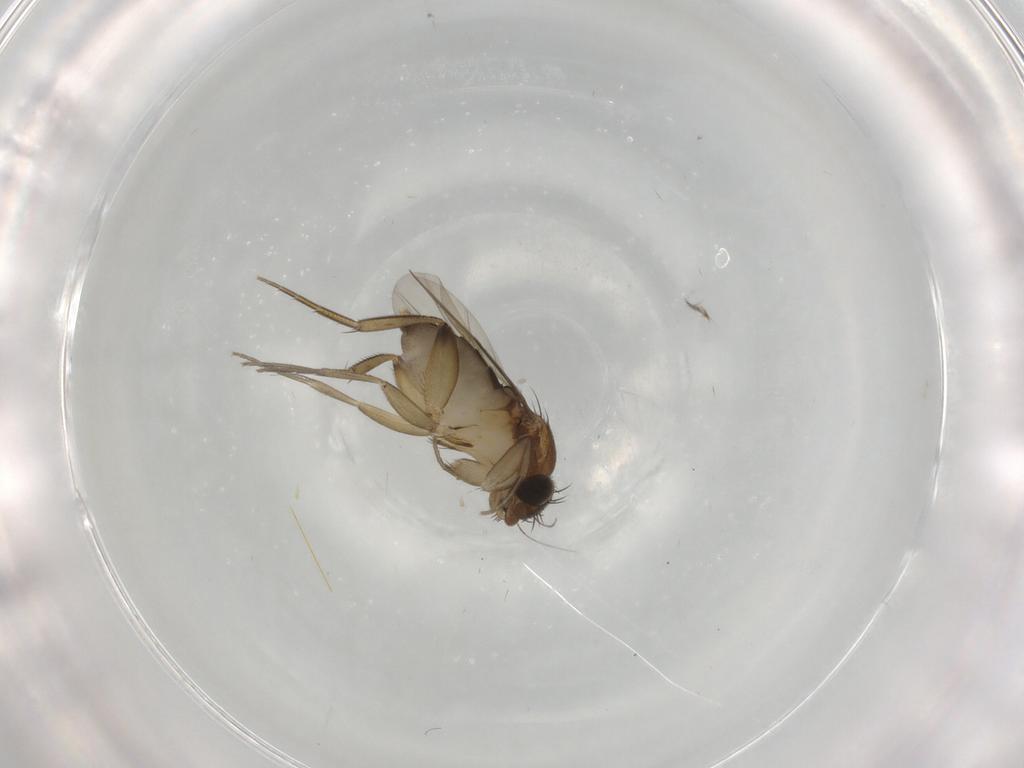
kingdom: Animalia
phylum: Arthropoda
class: Insecta
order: Diptera
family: Phoridae
